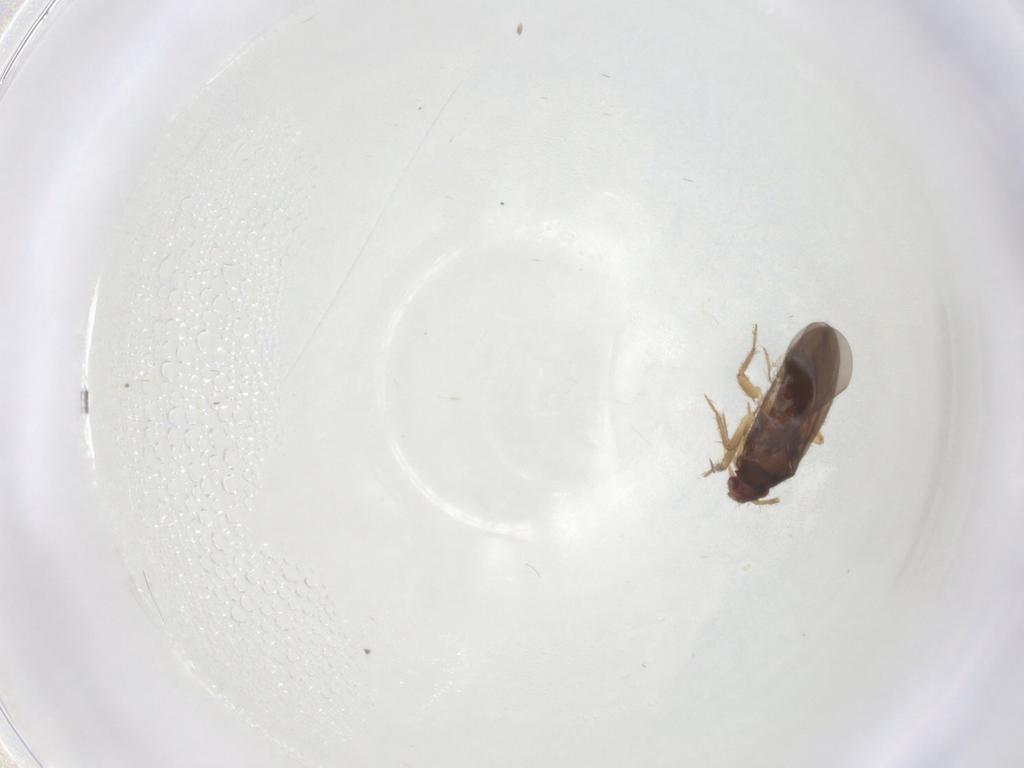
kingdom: Animalia
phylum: Arthropoda
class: Insecta
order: Hemiptera
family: Ceratocombidae
